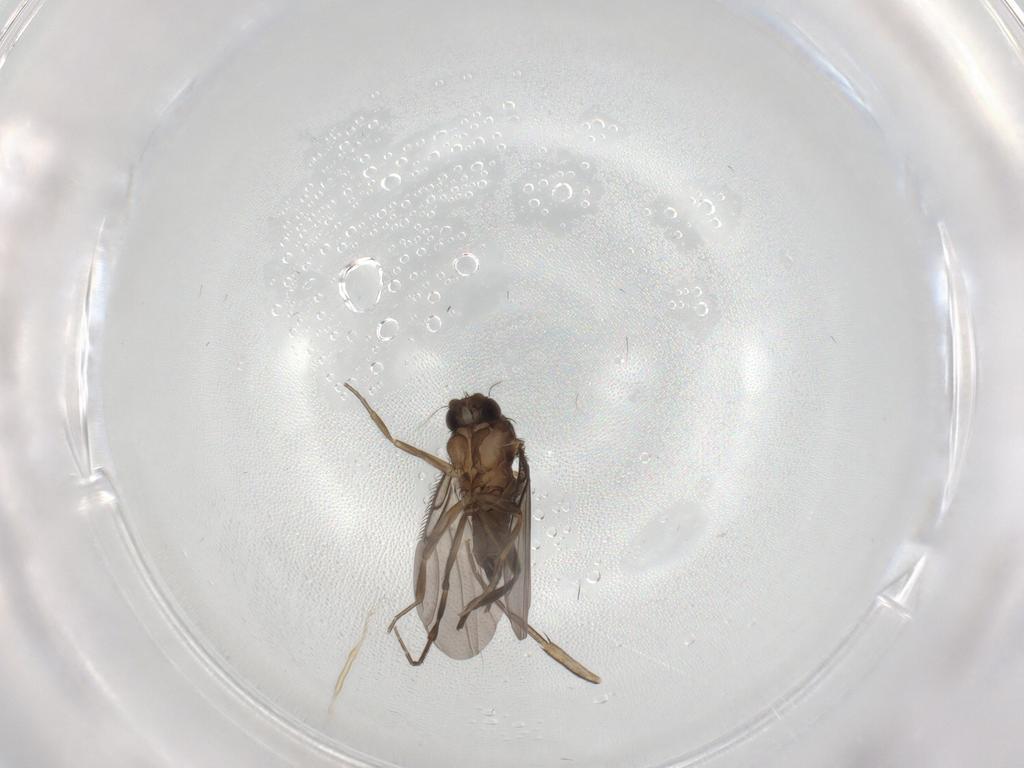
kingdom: Animalia
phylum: Arthropoda
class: Insecta
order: Diptera
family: Phoridae
